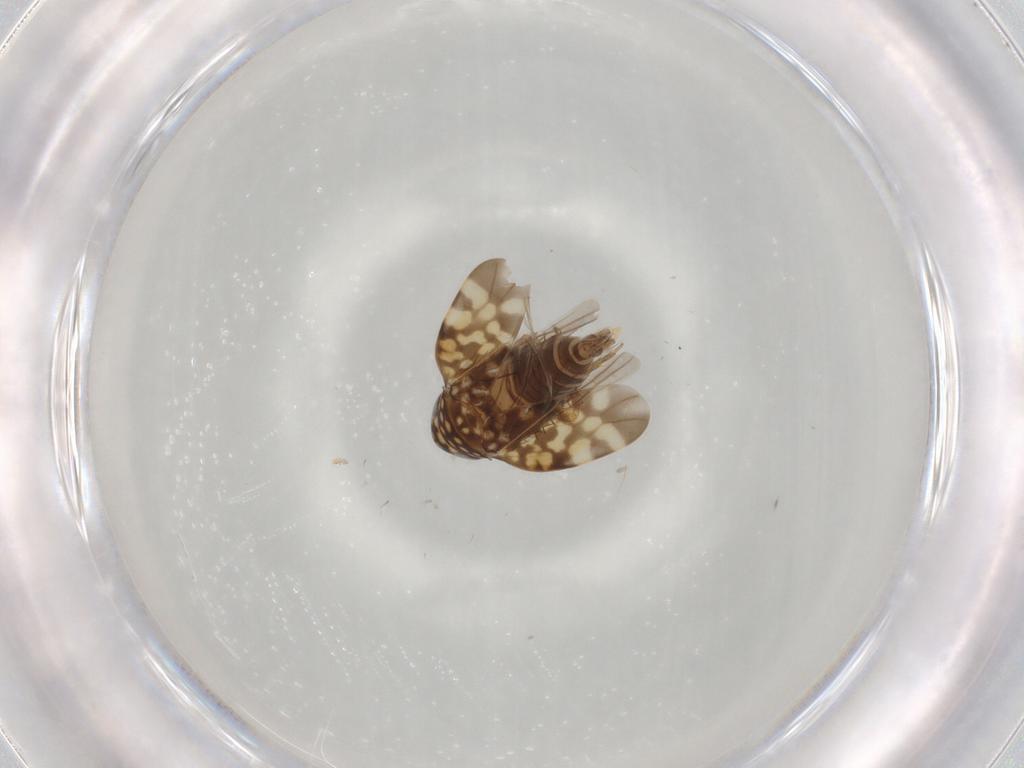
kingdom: Animalia
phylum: Arthropoda
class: Insecta
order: Hemiptera
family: Cicadellidae
